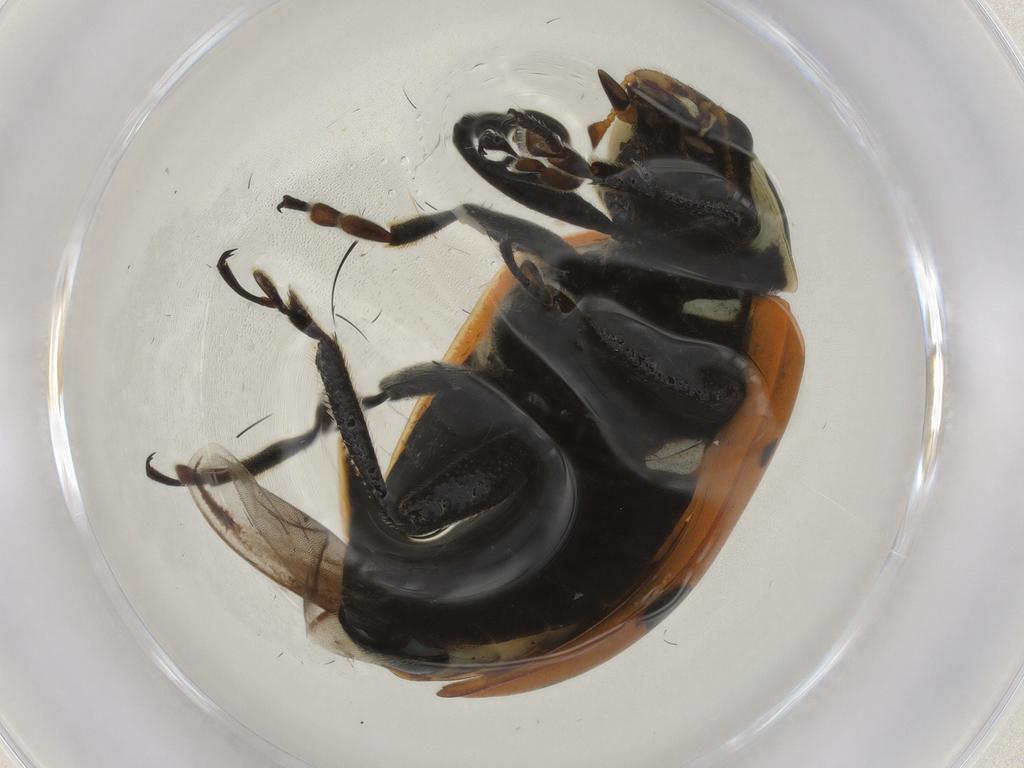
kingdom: Animalia
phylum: Arthropoda
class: Insecta
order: Coleoptera
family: Coccinellidae
